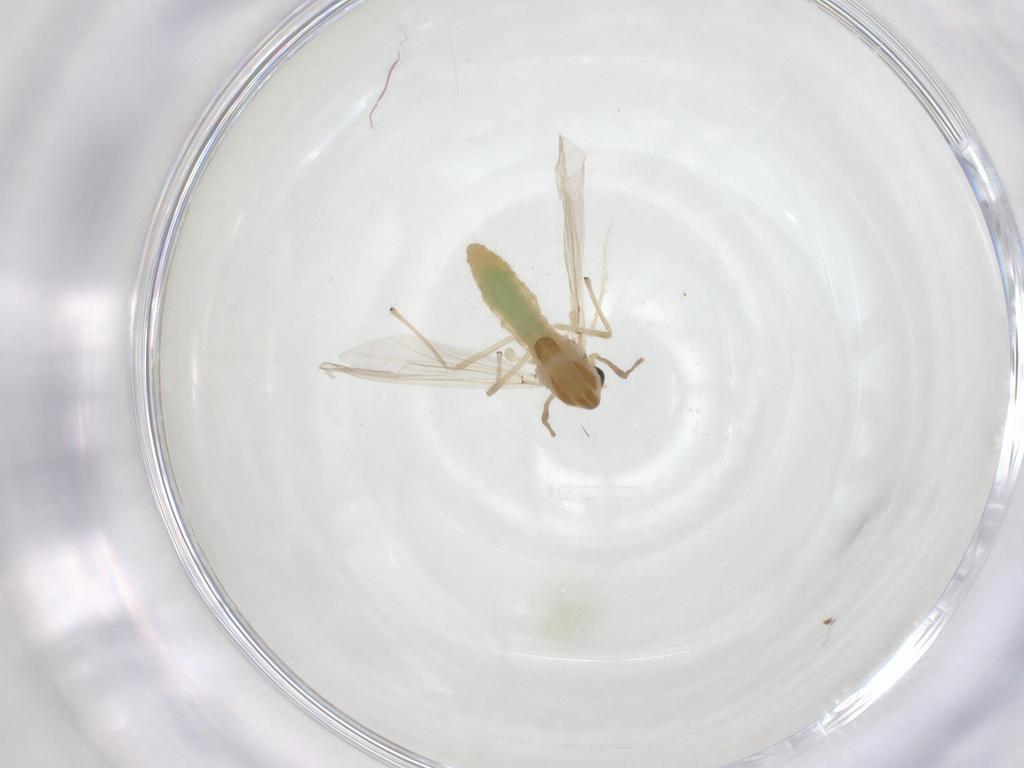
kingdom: Animalia
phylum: Arthropoda
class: Insecta
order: Diptera
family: Chironomidae
